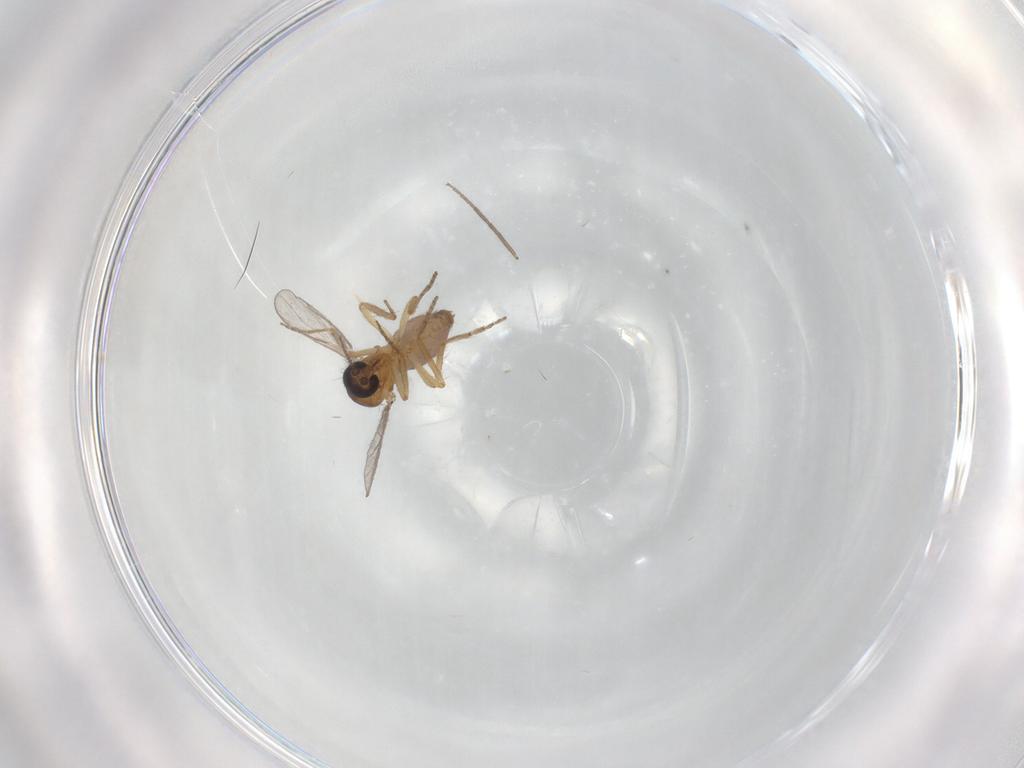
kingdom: Animalia
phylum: Arthropoda
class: Insecta
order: Diptera
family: Ceratopogonidae
